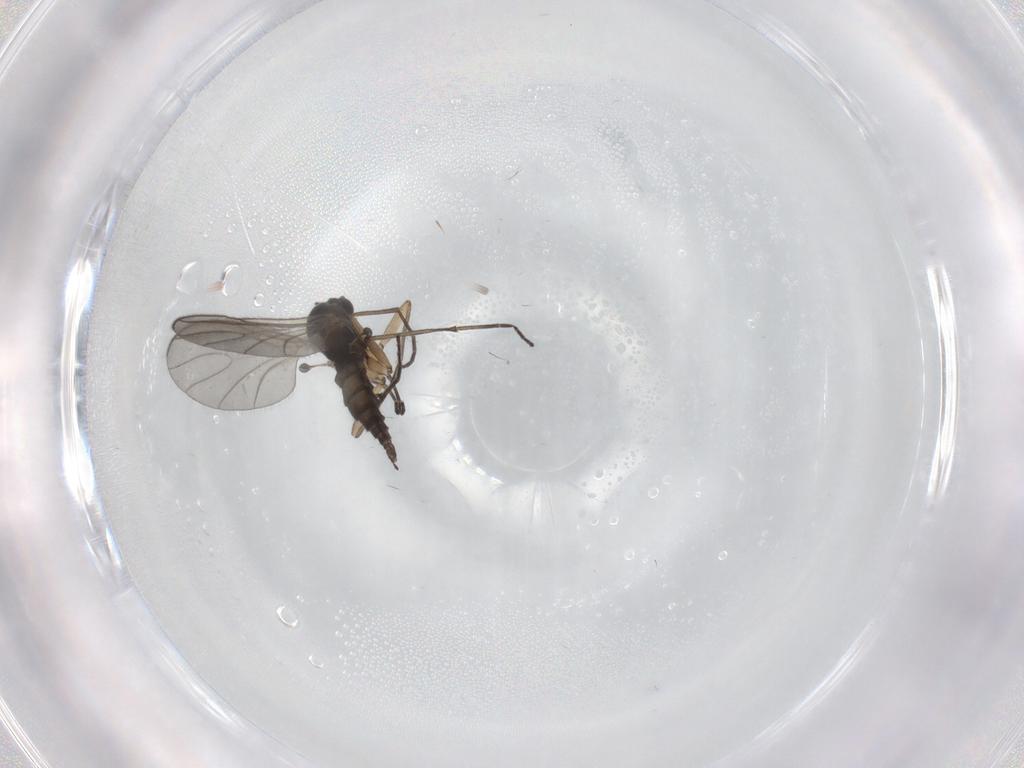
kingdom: Animalia
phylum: Arthropoda
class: Insecta
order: Diptera
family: Sciaridae
